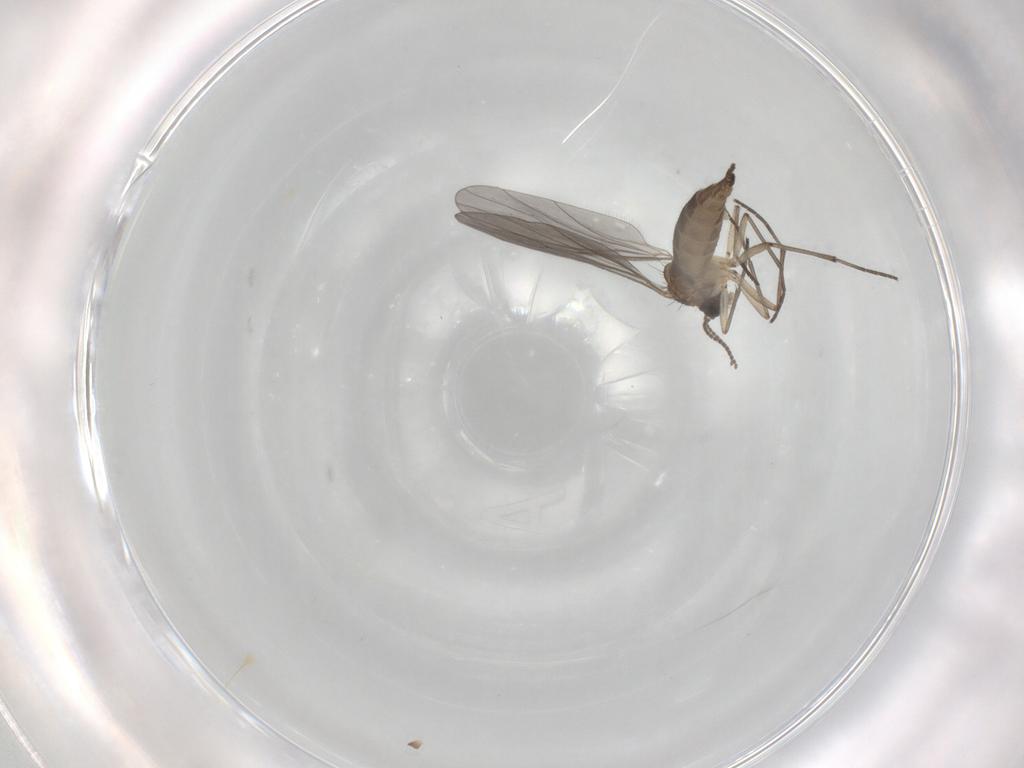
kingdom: Animalia
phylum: Arthropoda
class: Insecta
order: Diptera
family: Sciaridae
